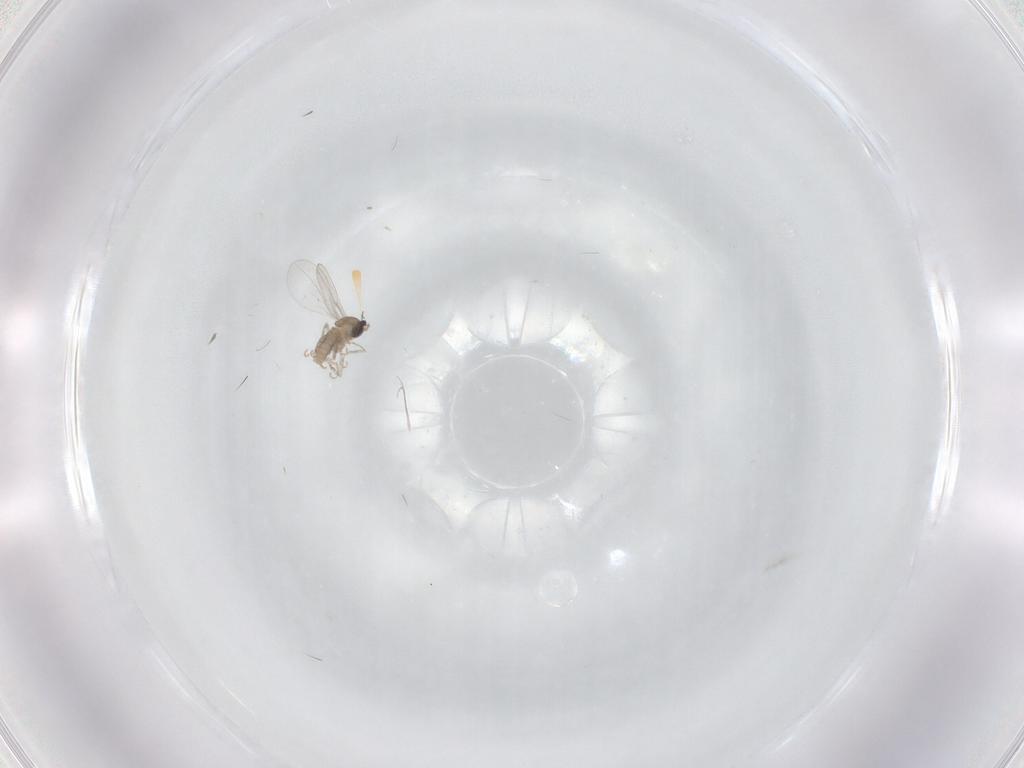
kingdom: Animalia
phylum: Arthropoda
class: Insecta
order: Diptera
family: Cecidomyiidae
